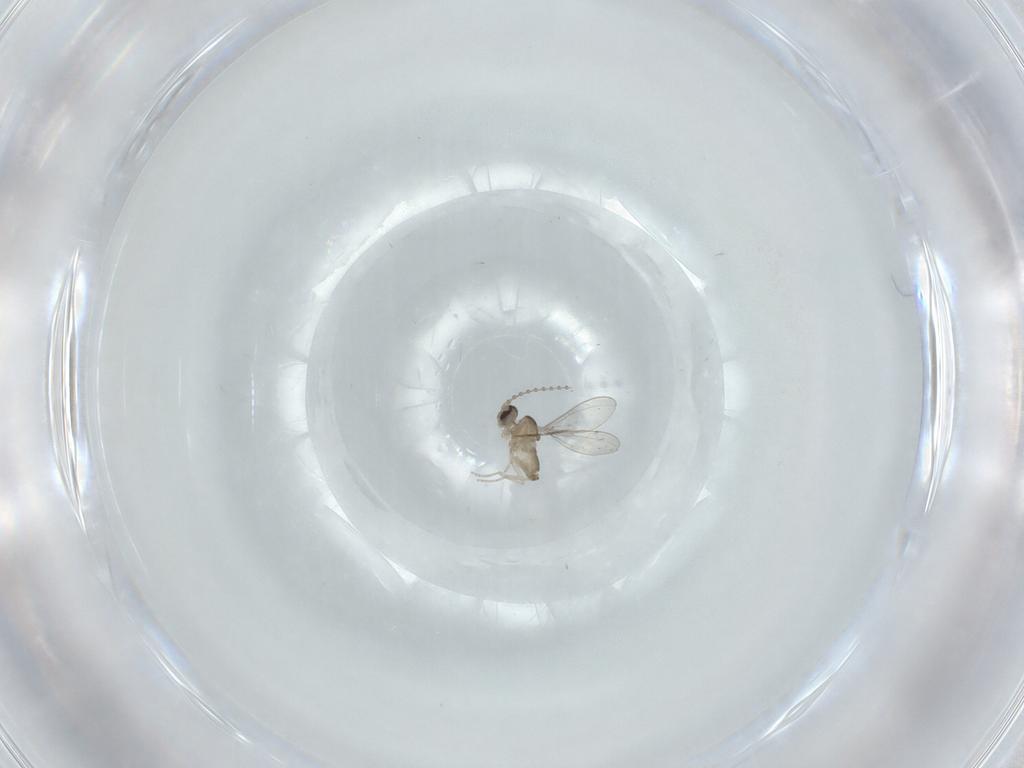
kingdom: Animalia
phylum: Arthropoda
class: Insecta
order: Diptera
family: Cecidomyiidae
